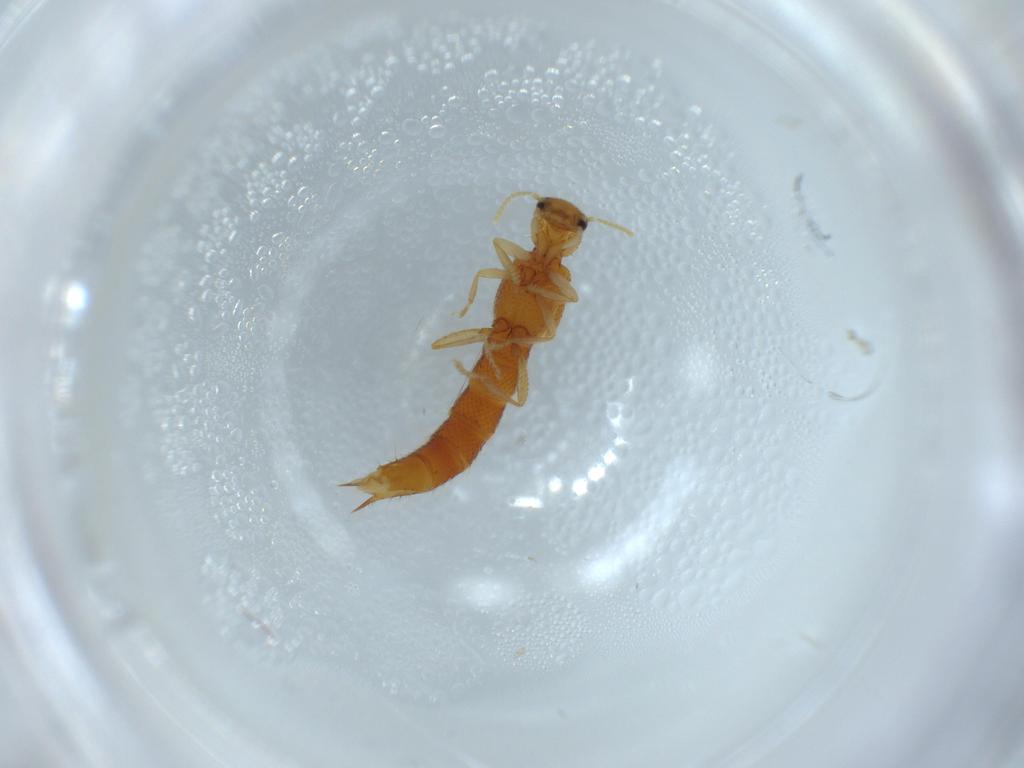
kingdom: Animalia
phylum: Arthropoda
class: Insecta
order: Coleoptera
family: Staphylinidae
